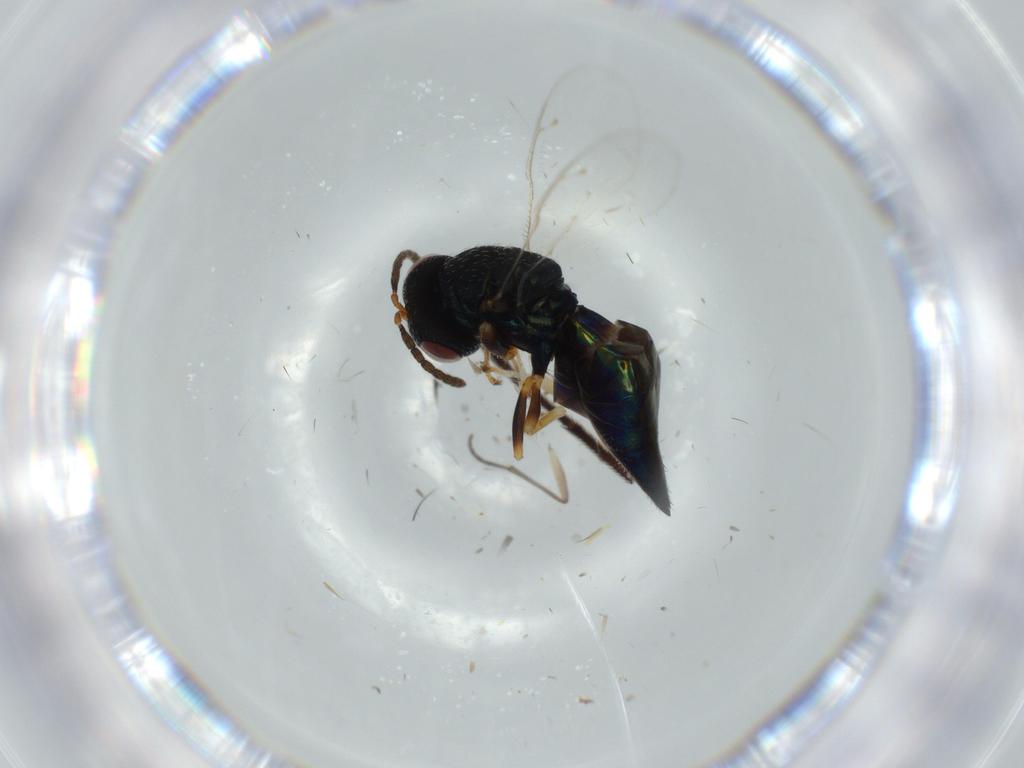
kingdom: Animalia
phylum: Arthropoda
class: Insecta
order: Hymenoptera
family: Pteromalidae
